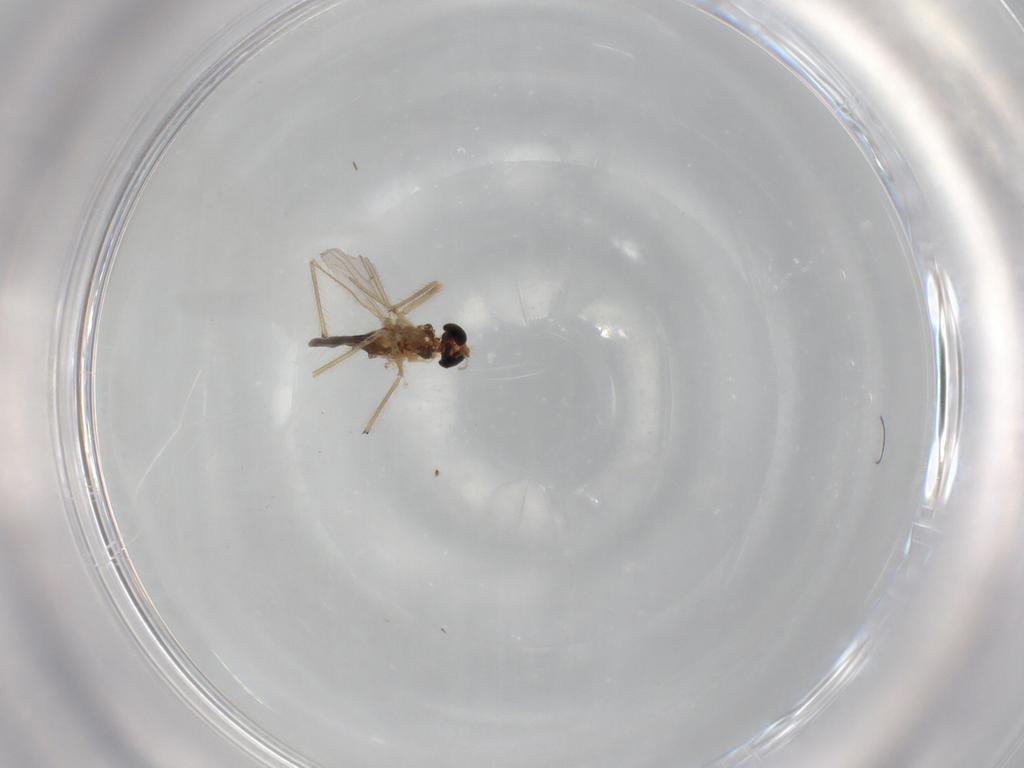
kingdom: Animalia
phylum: Arthropoda
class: Insecta
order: Diptera
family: Chironomidae
